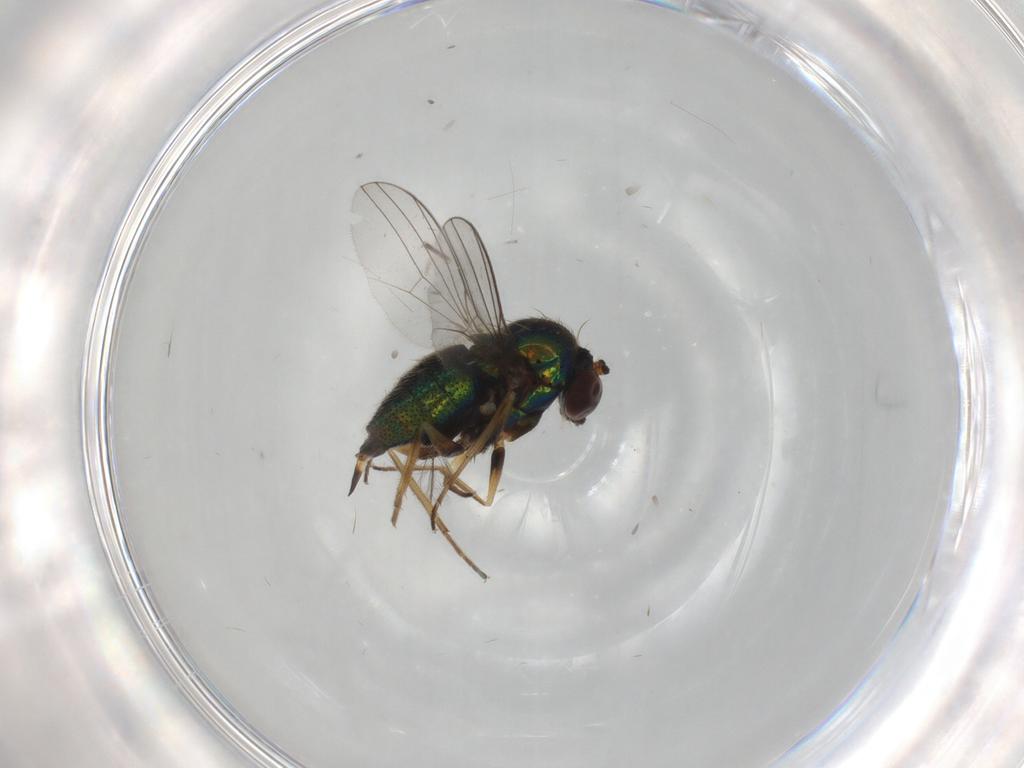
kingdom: Animalia
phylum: Arthropoda
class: Insecta
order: Diptera
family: Dolichopodidae
